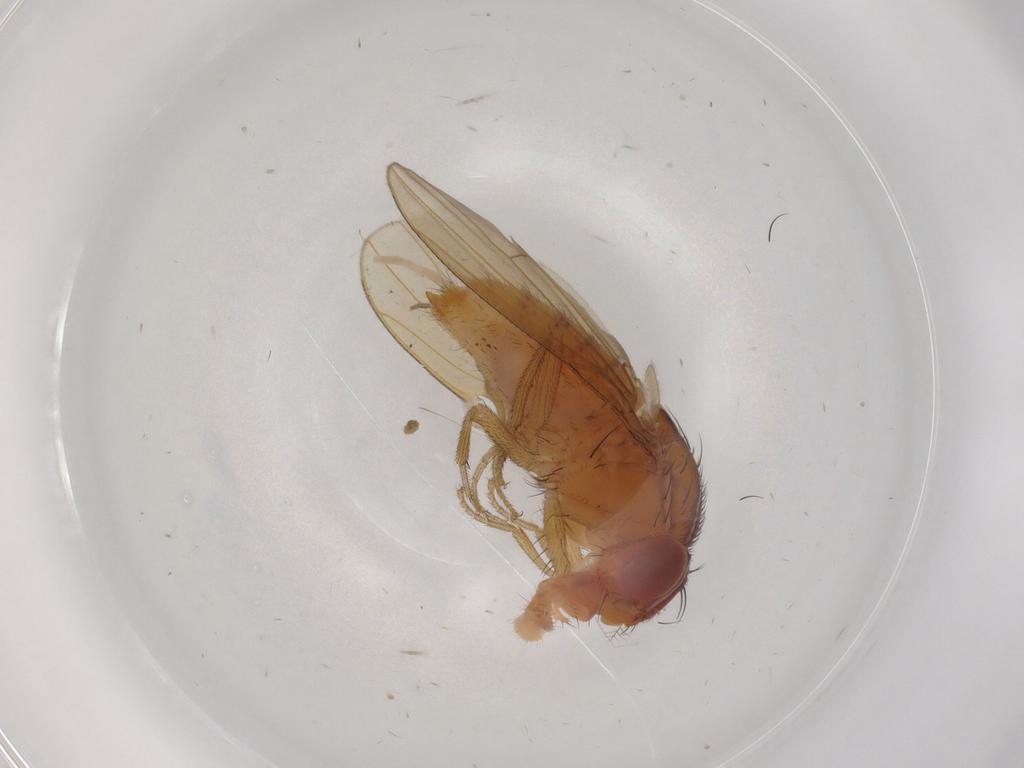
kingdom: Animalia
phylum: Arthropoda
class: Insecta
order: Diptera
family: Drosophilidae
